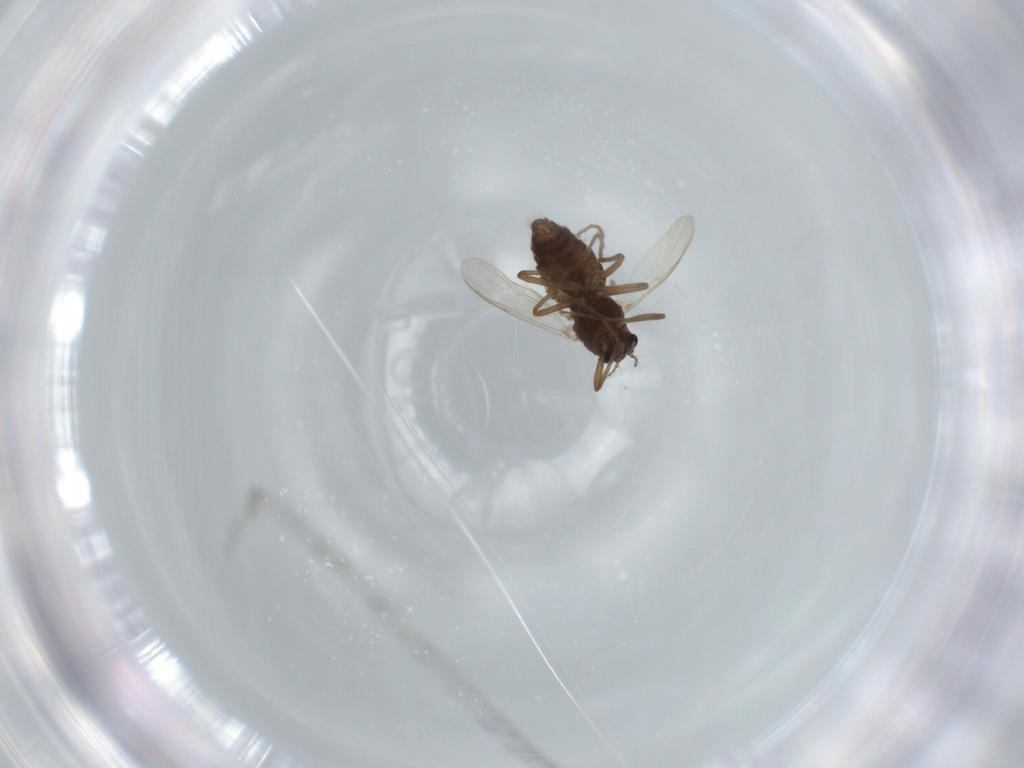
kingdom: Animalia
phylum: Arthropoda
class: Insecta
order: Diptera
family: Chironomidae
